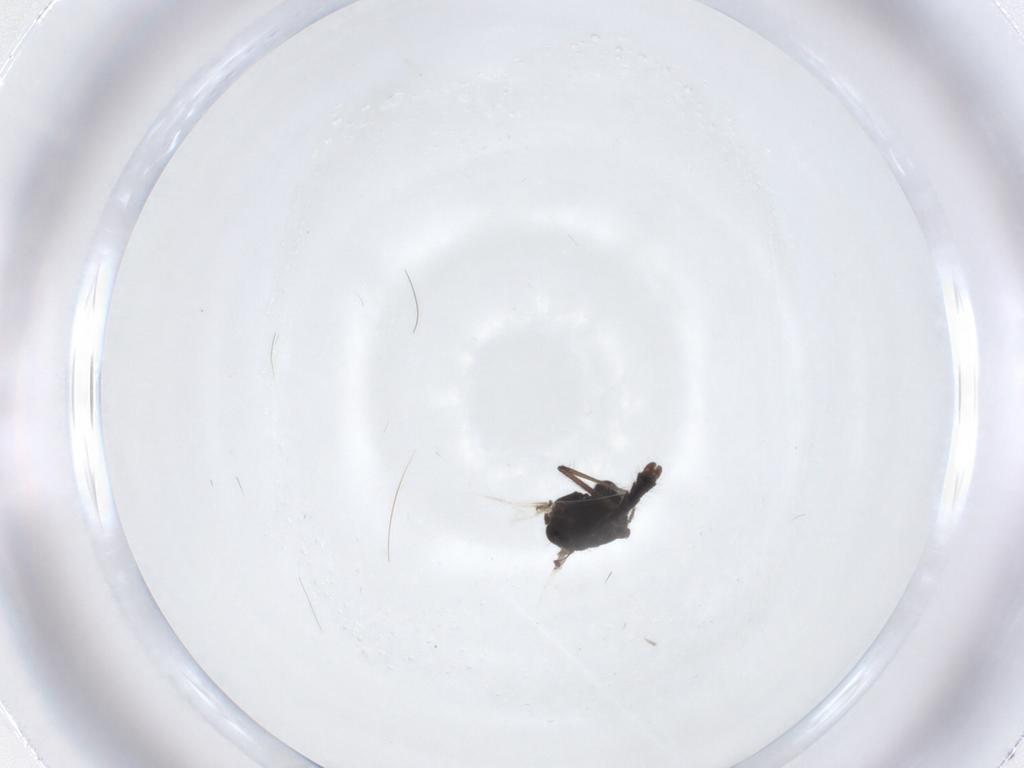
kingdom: Animalia
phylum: Arthropoda
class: Insecta
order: Diptera
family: Chironomidae
